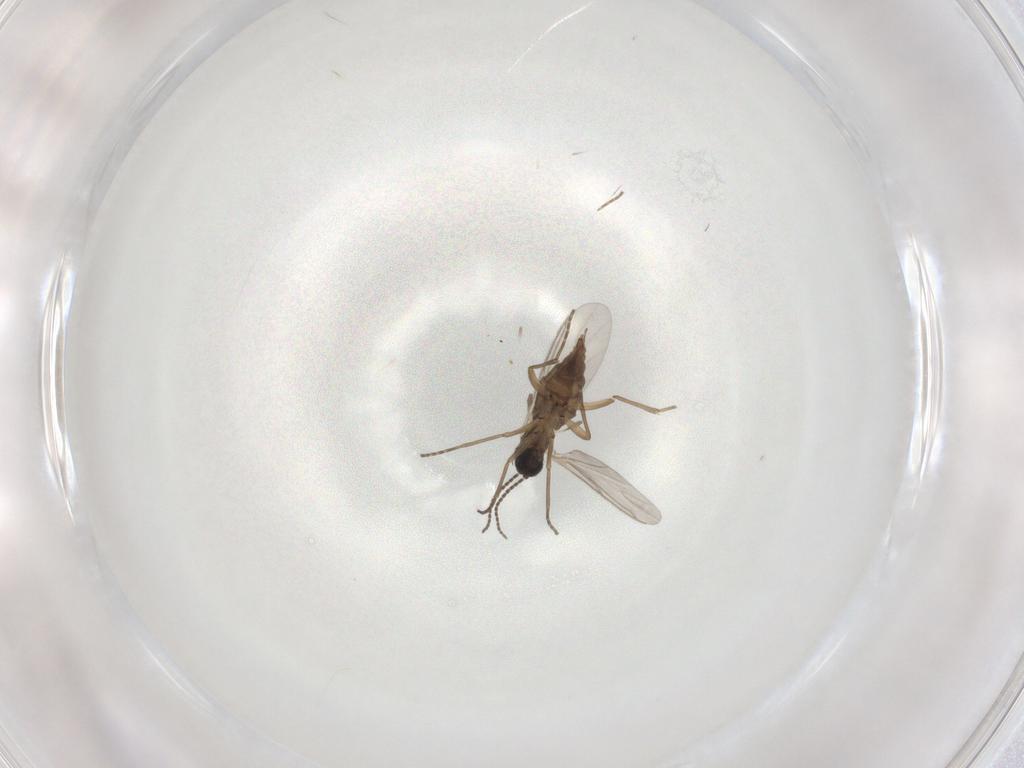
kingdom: Animalia
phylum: Arthropoda
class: Insecta
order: Diptera
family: Sciaridae
